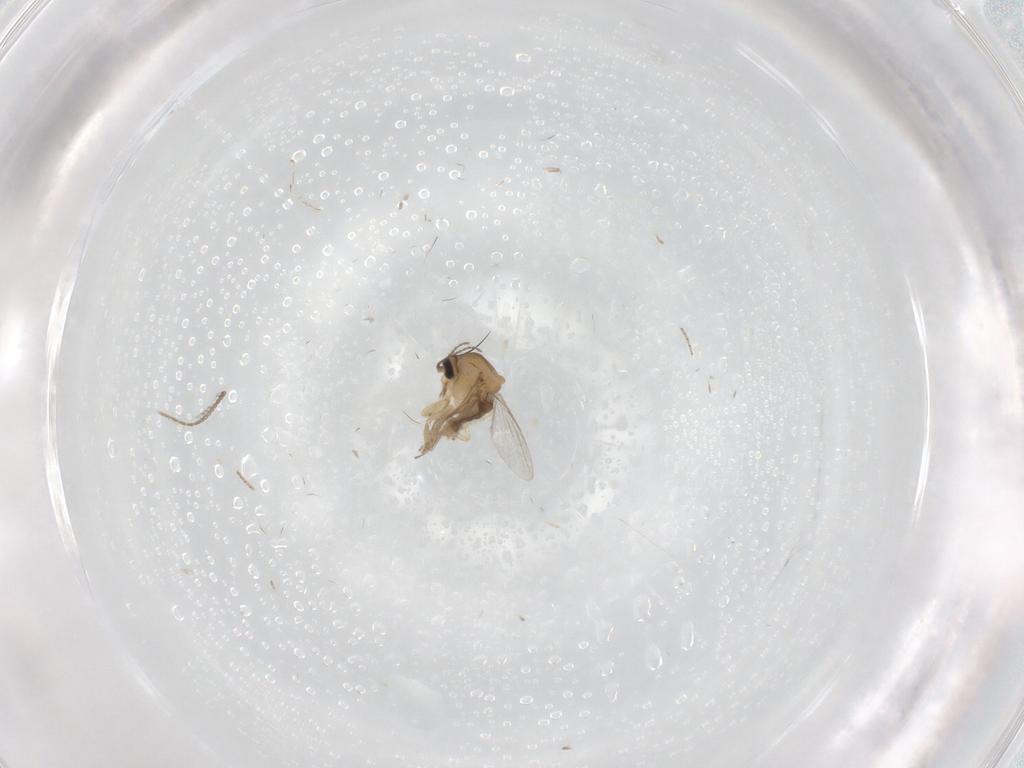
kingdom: Animalia
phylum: Arthropoda
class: Insecta
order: Diptera
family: Ceratopogonidae
